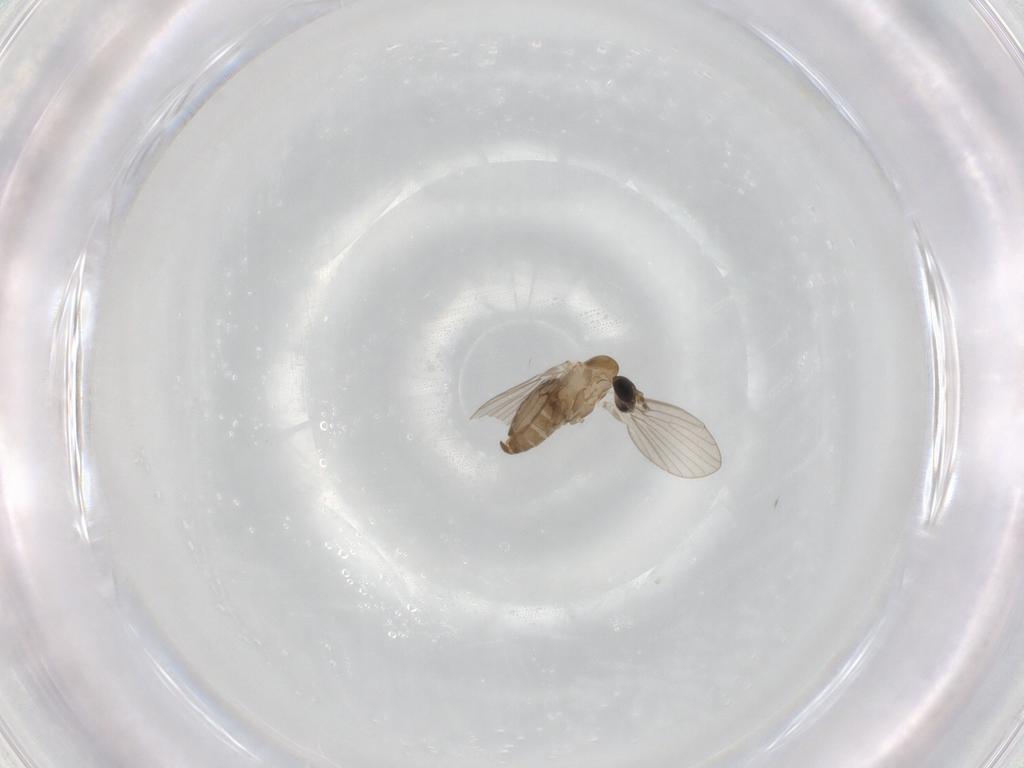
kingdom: Animalia
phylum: Arthropoda
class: Insecta
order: Diptera
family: Psychodidae
